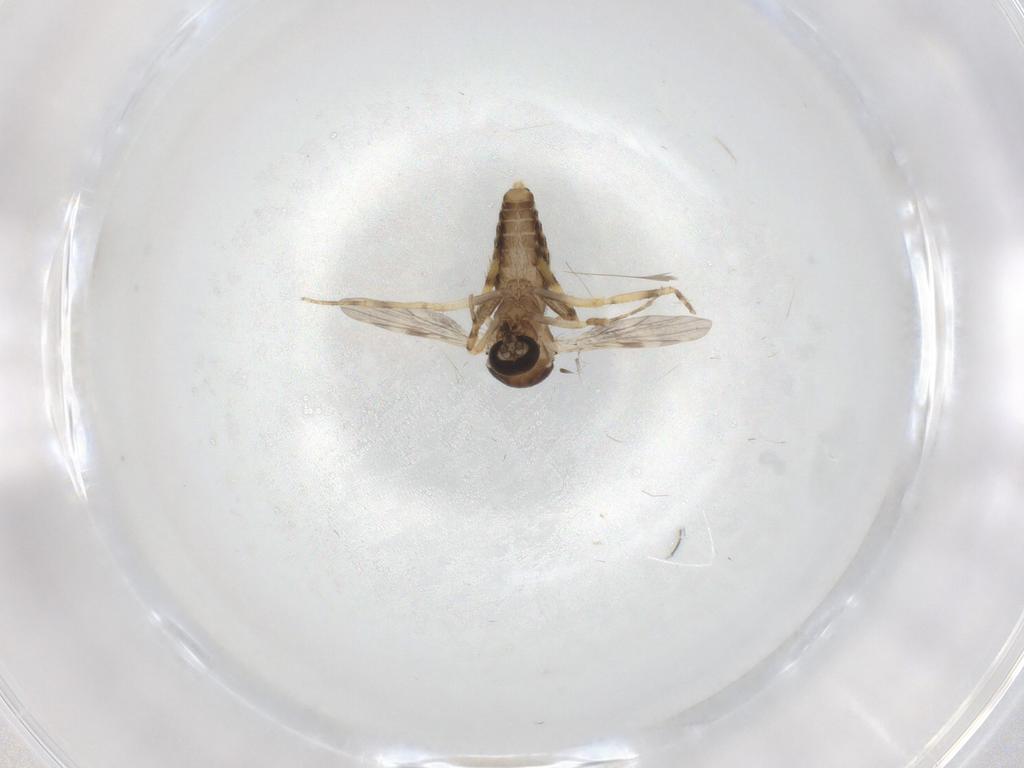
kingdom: Animalia
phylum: Arthropoda
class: Insecta
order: Diptera
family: Ceratopogonidae
